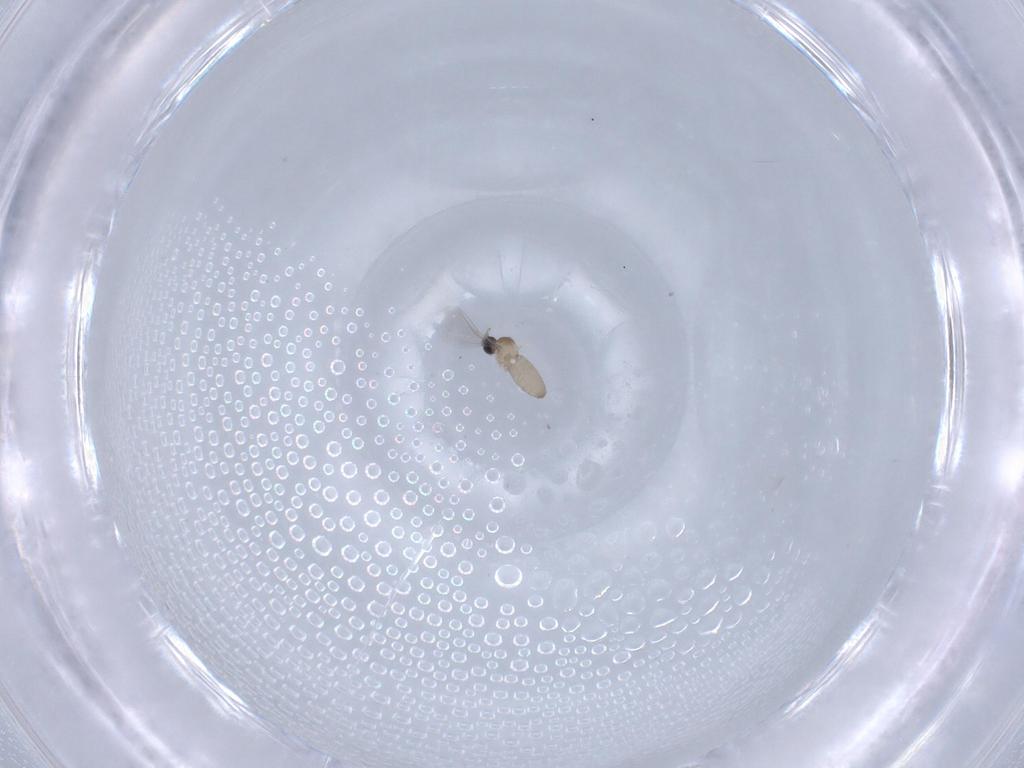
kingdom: Animalia
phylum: Arthropoda
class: Insecta
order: Diptera
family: Cecidomyiidae
